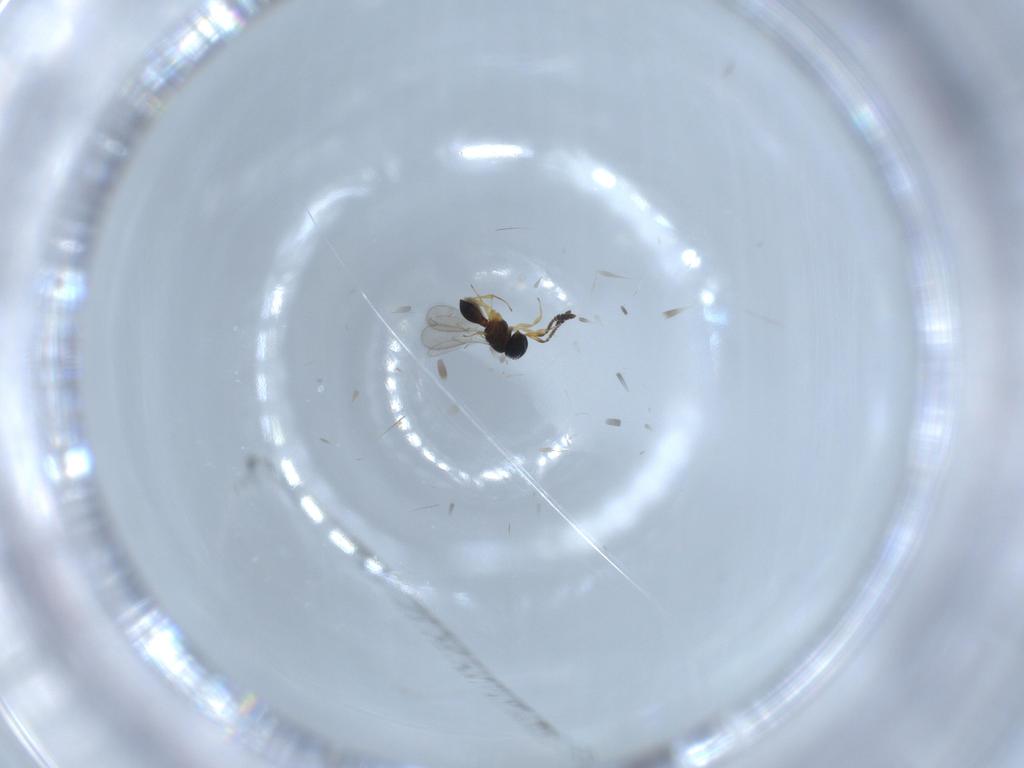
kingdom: Animalia
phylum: Arthropoda
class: Insecta
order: Hymenoptera
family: Scelionidae
